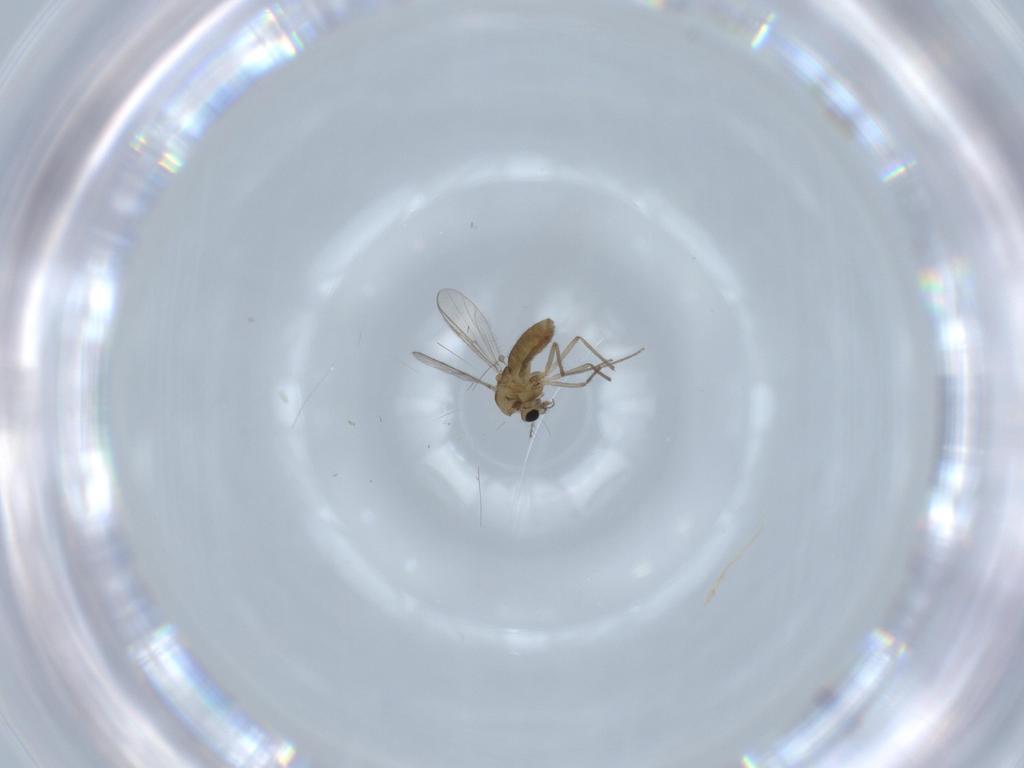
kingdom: Animalia
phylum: Arthropoda
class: Insecta
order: Diptera
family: Chironomidae
